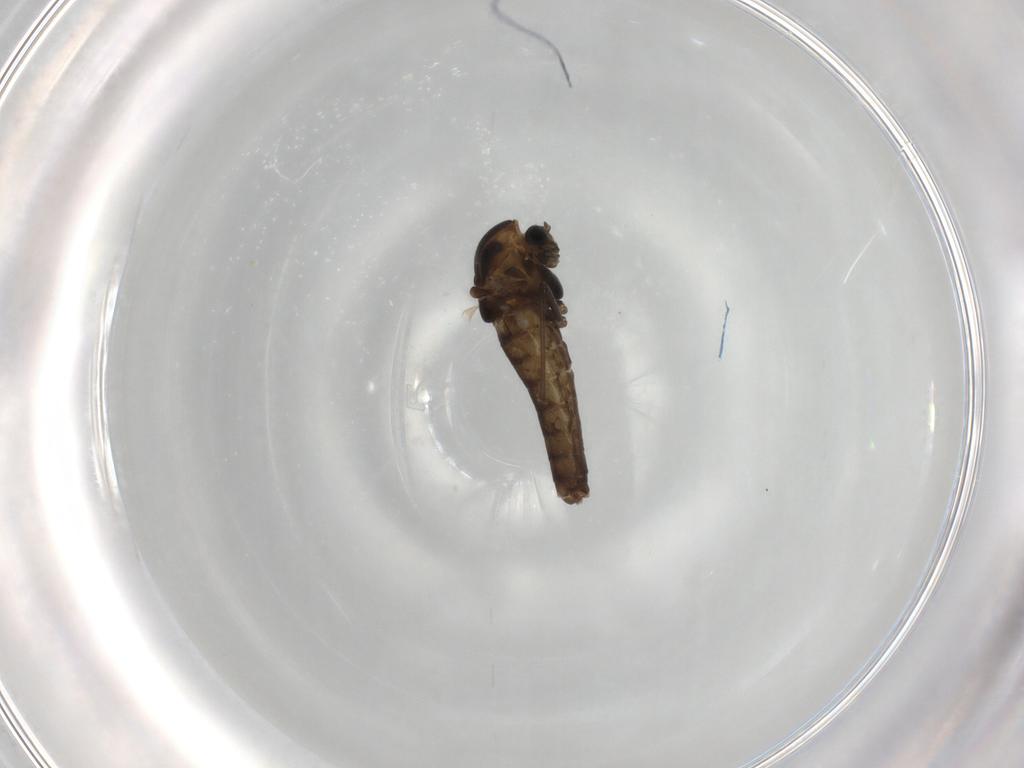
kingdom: Animalia
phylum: Arthropoda
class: Insecta
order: Diptera
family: Chironomidae
